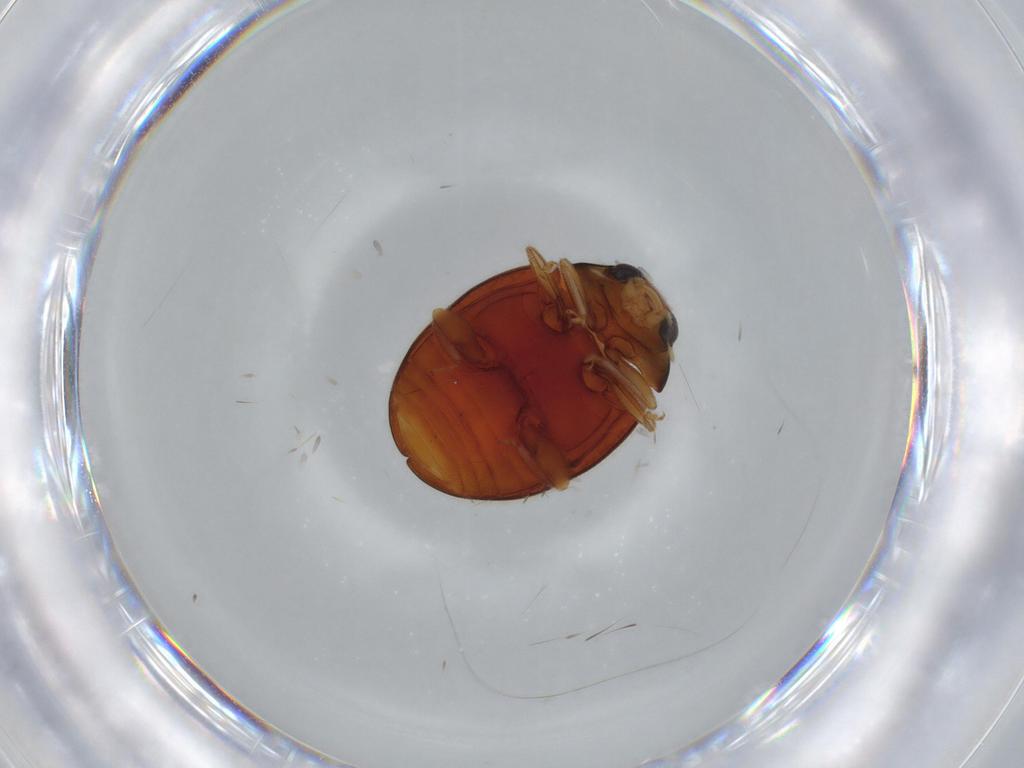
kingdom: Animalia
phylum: Arthropoda
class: Insecta
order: Coleoptera
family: Coccinellidae
